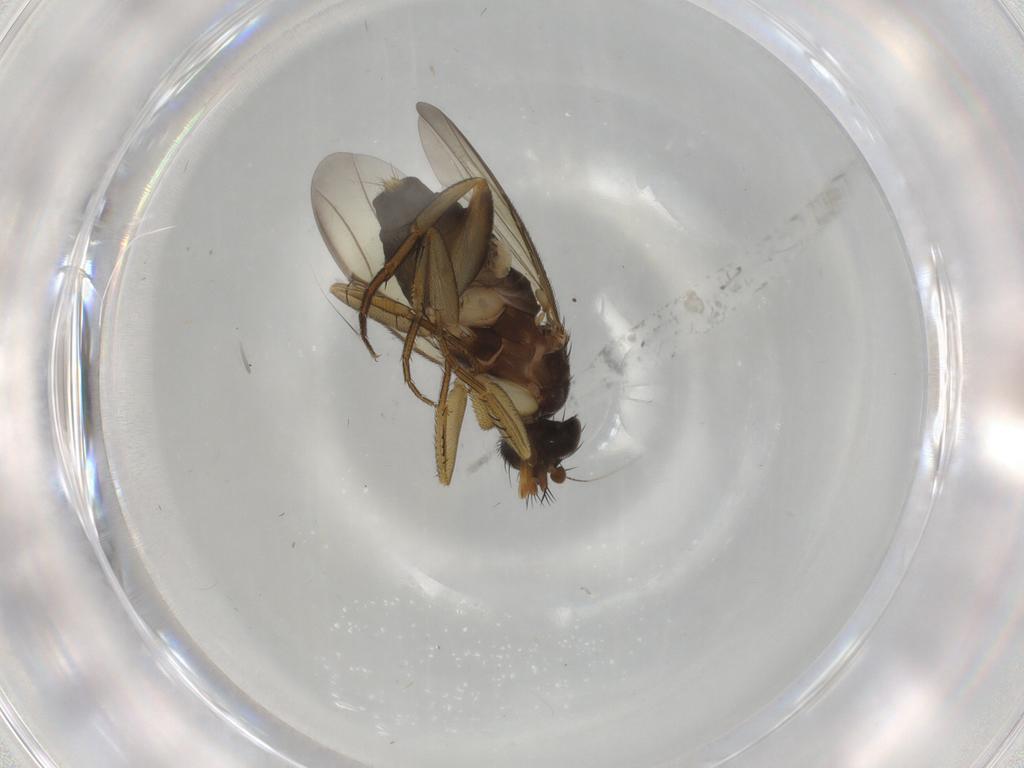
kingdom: Animalia
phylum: Arthropoda
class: Insecta
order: Diptera
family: Phoridae
